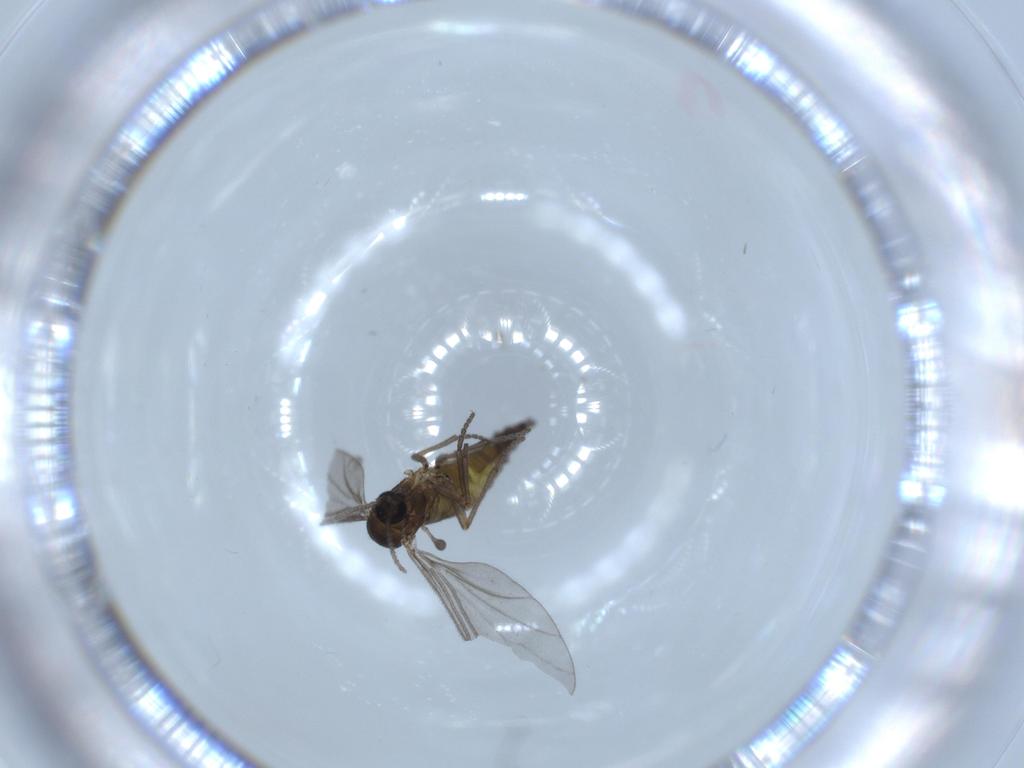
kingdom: Animalia
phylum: Arthropoda
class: Insecta
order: Diptera
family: Sciaridae
